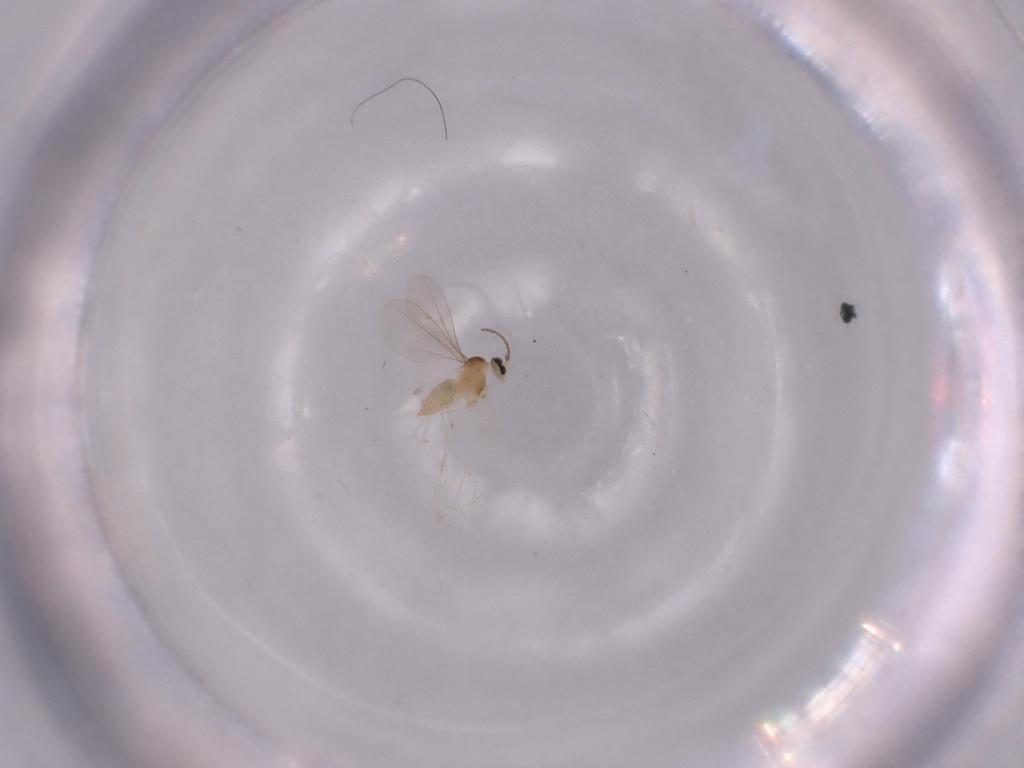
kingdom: Animalia
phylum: Arthropoda
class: Insecta
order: Diptera
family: Cecidomyiidae
